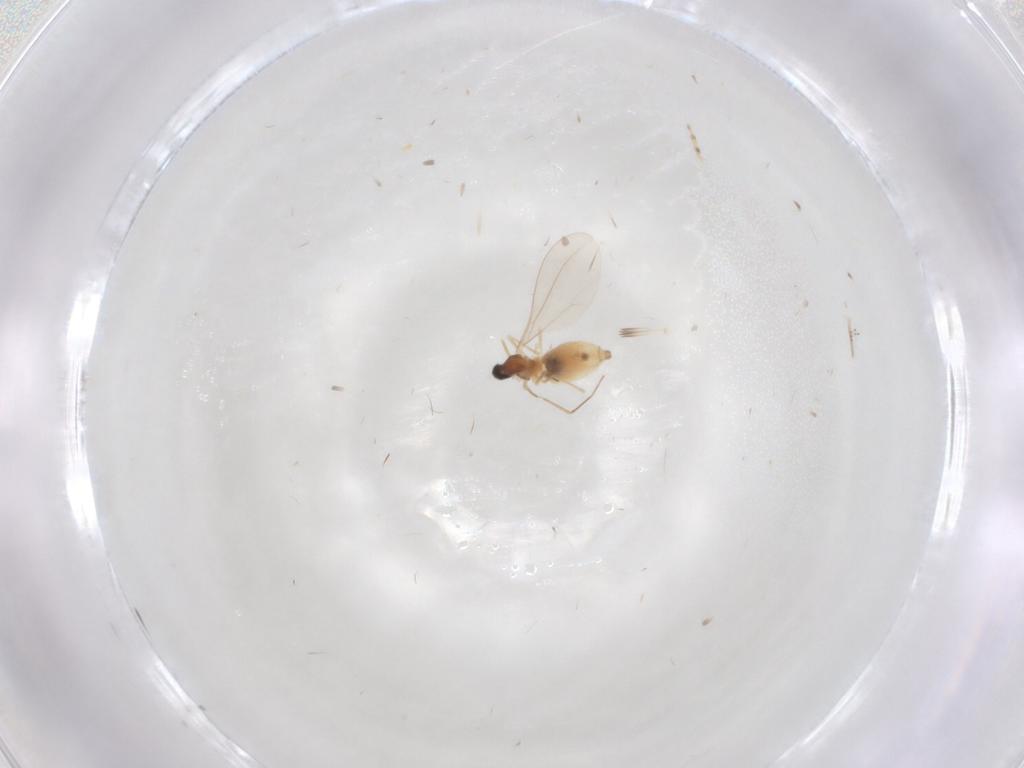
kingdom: Animalia
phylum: Arthropoda
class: Insecta
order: Diptera
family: Cecidomyiidae
